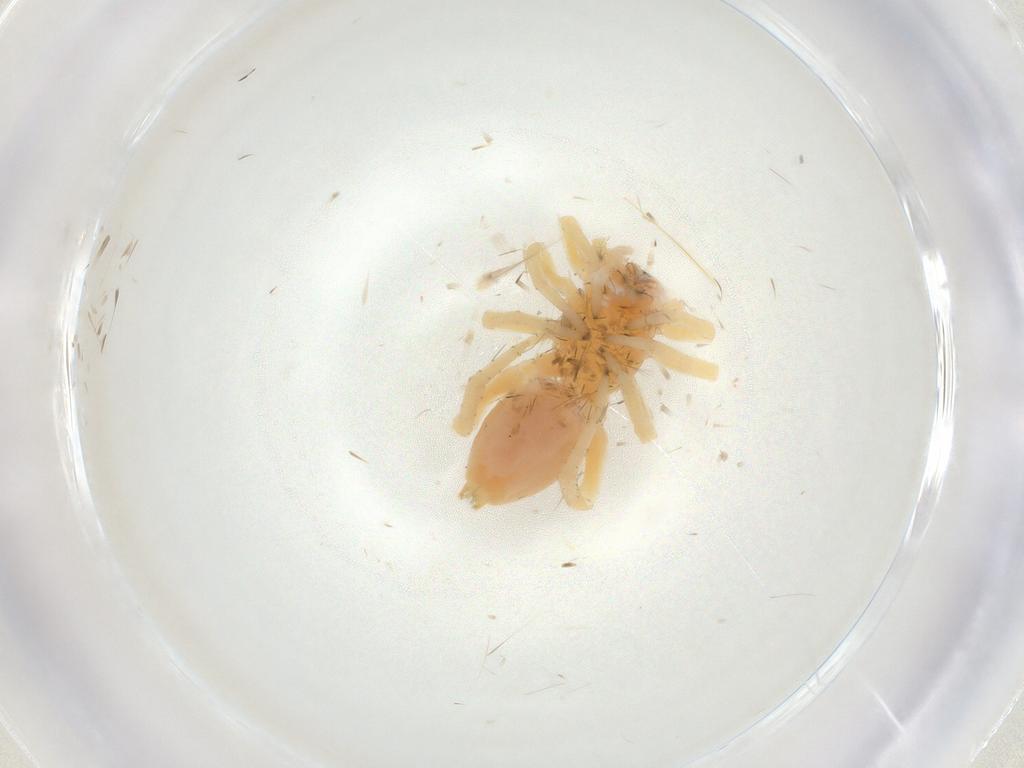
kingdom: Animalia
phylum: Arthropoda
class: Arachnida
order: Araneae
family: Clubionidae
